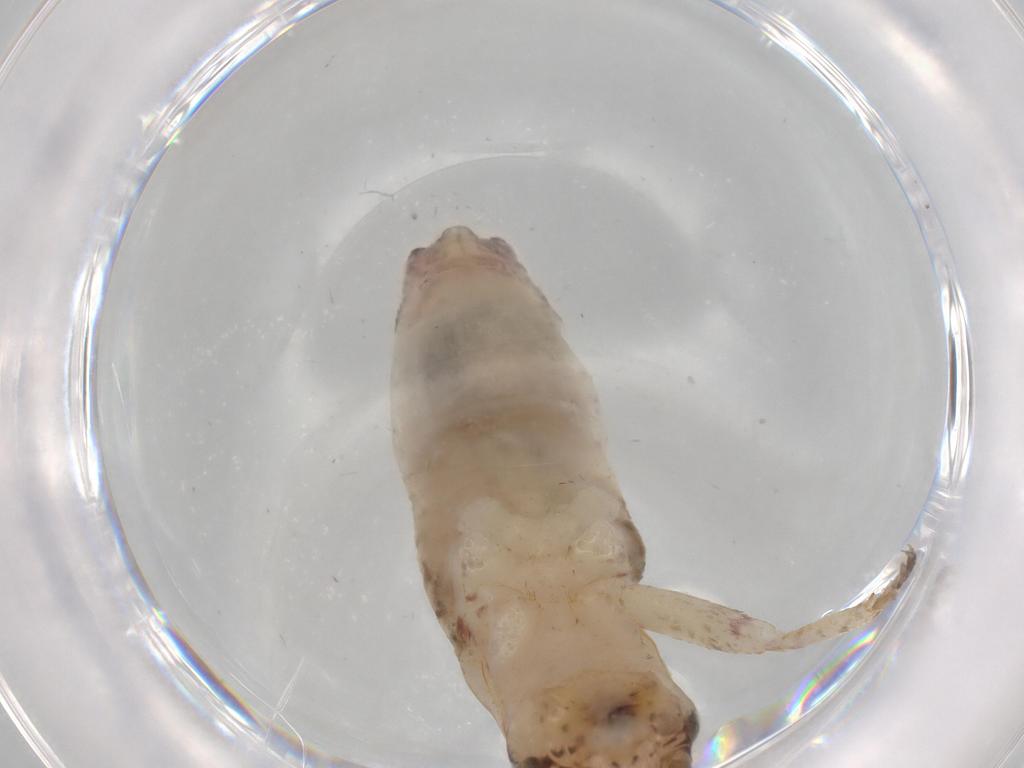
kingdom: Animalia
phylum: Arthropoda
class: Insecta
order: Orthoptera
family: Mogoplistidae
